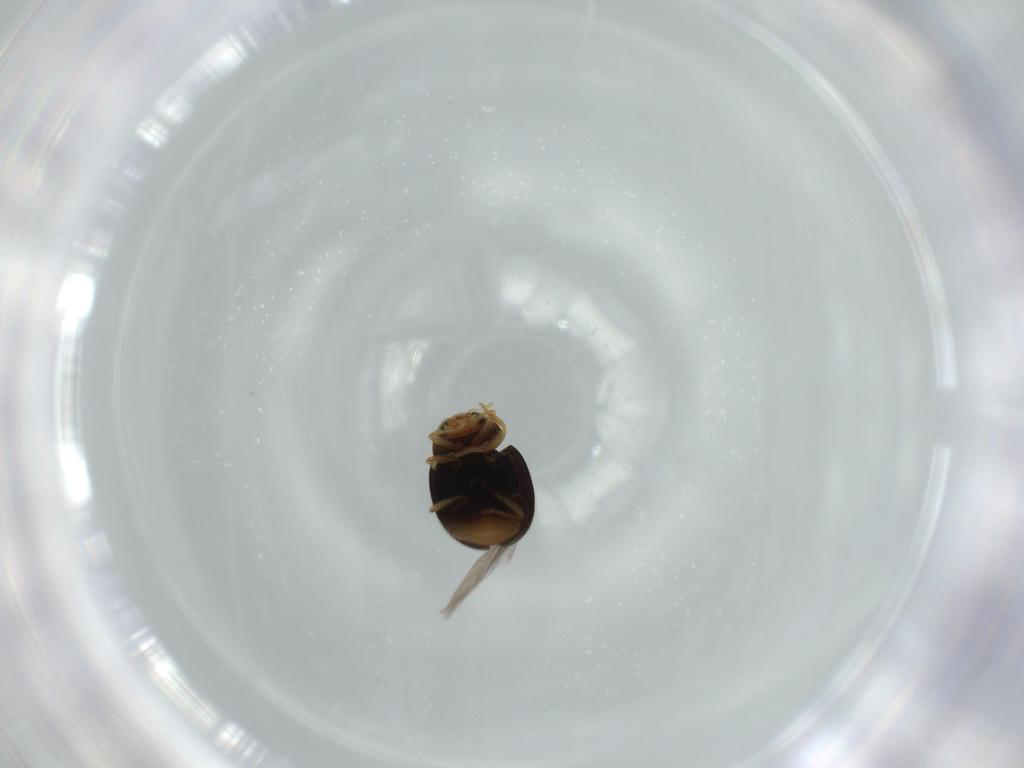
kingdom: Animalia
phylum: Arthropoda
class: Insecta
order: Coleoptera
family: Coccinellidae
